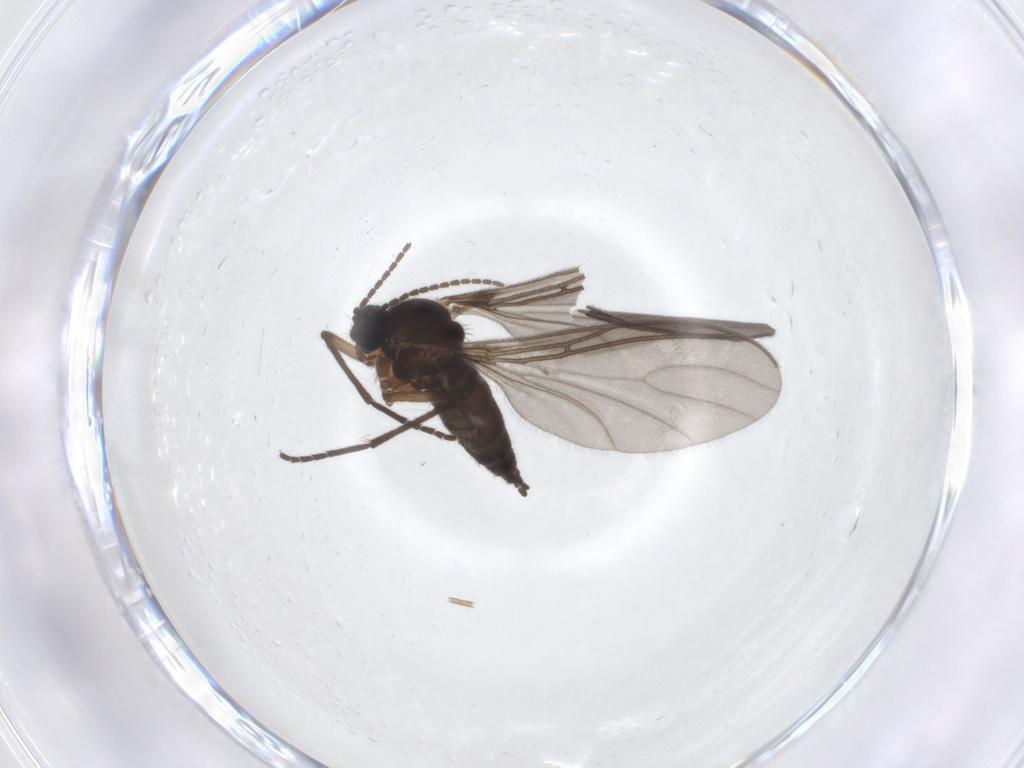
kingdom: Animalia
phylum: Arthropoda
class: Insecta
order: Diptera
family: Mycetophilidae
